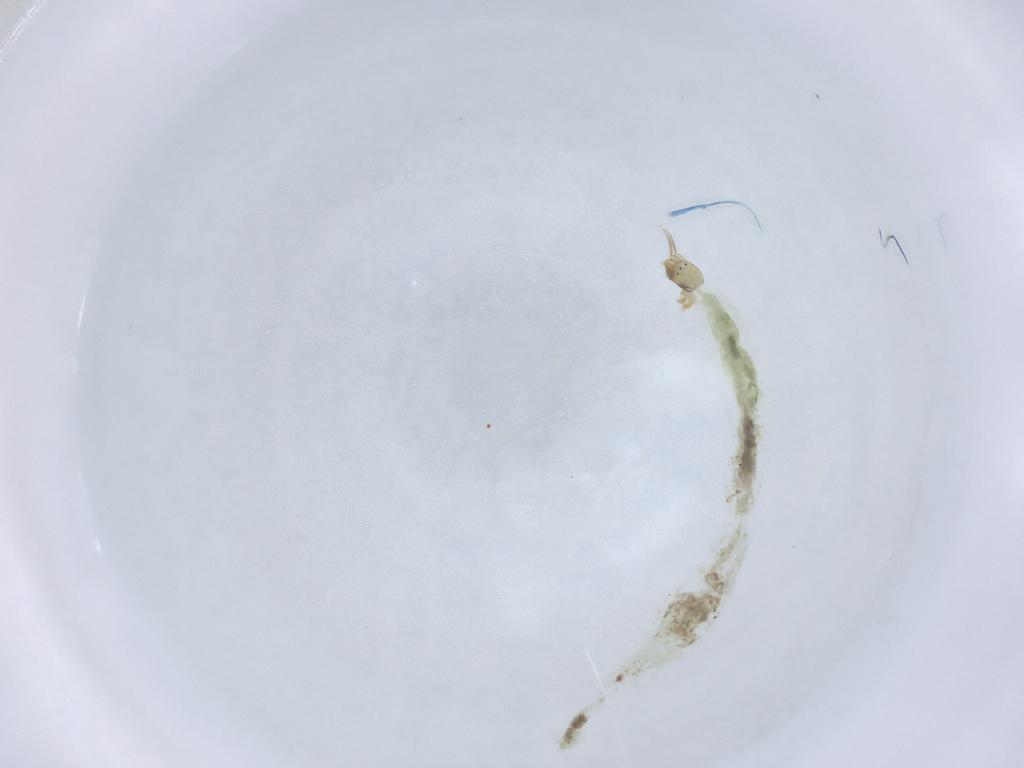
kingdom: Animalia
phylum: Arthropoda
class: Insecta
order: Diptera
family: Chironomidae
